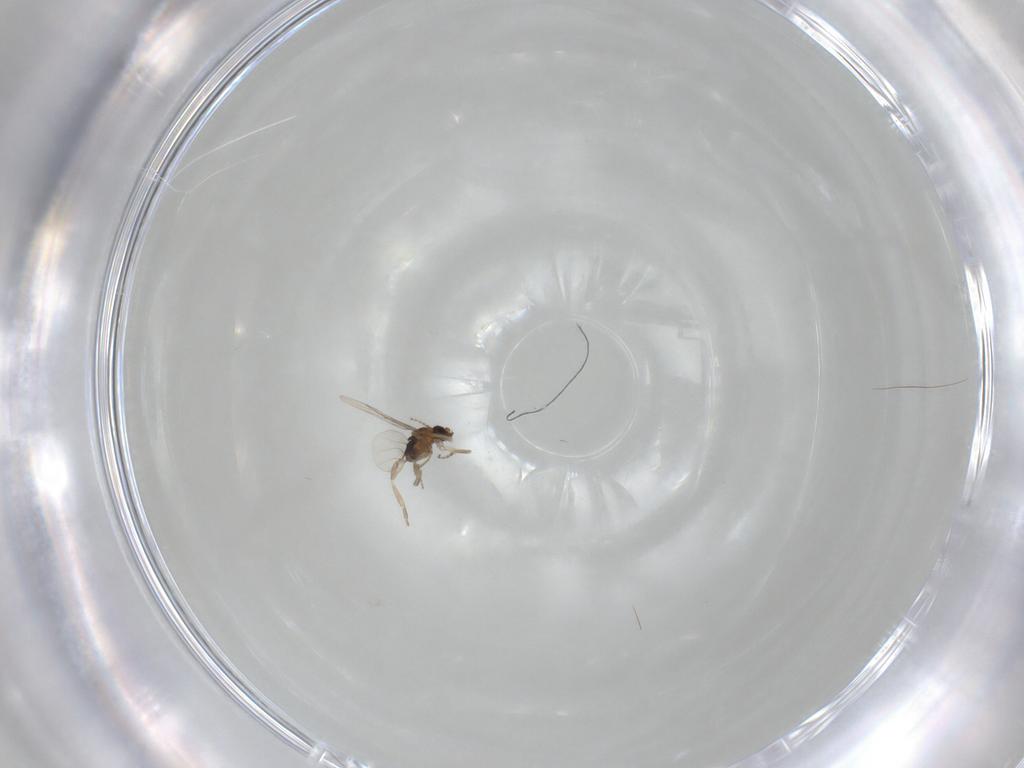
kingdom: Animalia
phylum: Arthropoda
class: Insecta
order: Diptera
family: Phoridae
